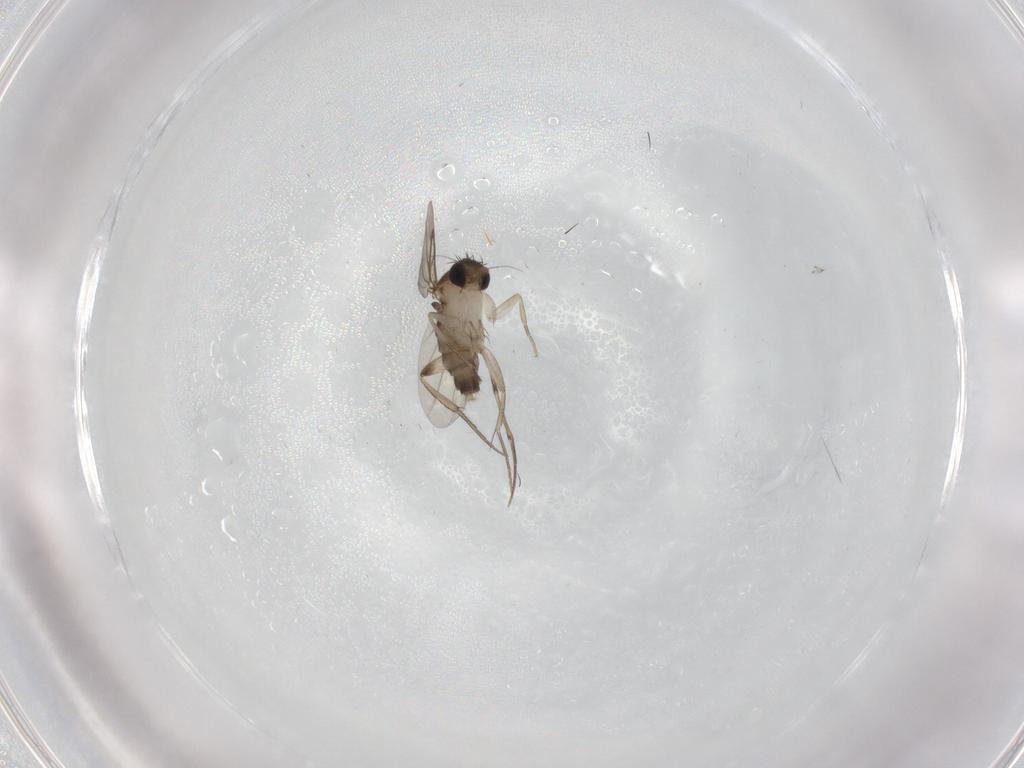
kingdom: Animalia
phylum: Arthropoda
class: Insecta
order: Diptera
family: Phoridae
